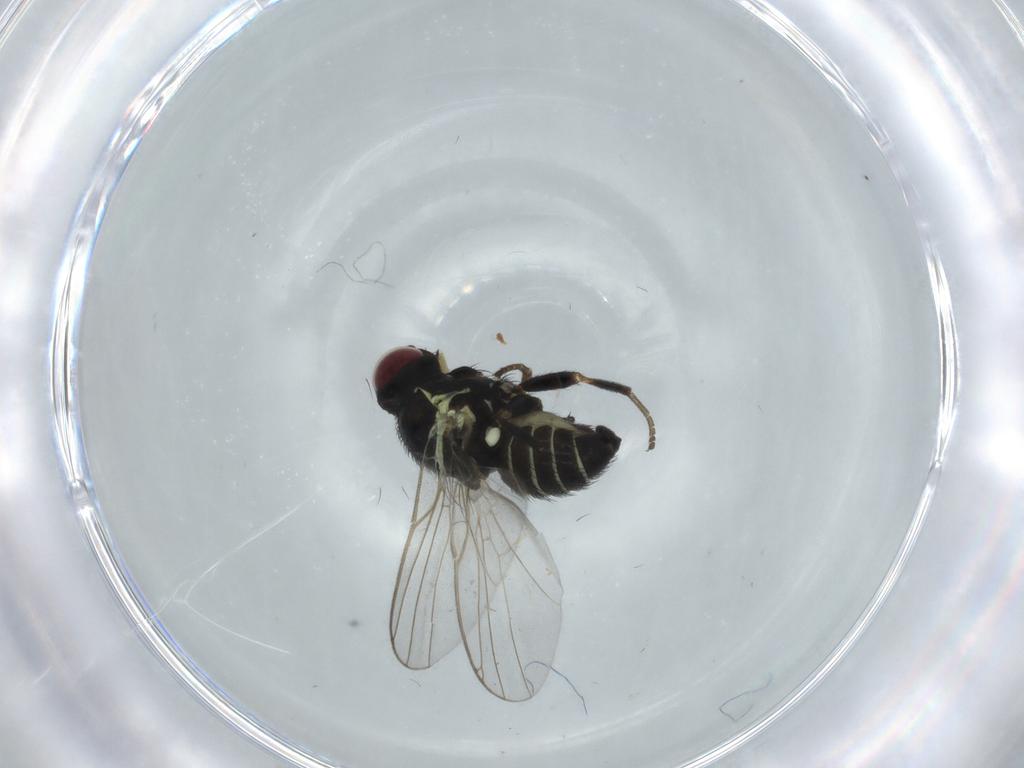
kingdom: Animalia
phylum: Arthropoda
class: Insecta
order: Diptera
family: Agromyzidae
